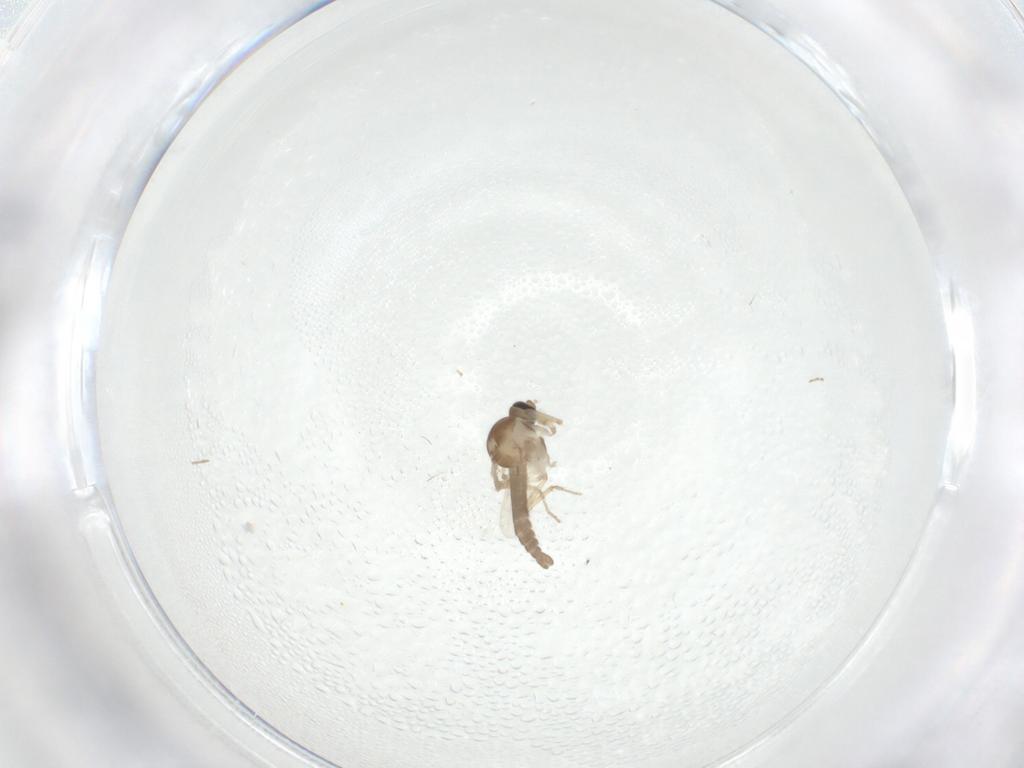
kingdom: Animalia
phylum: Arthropoda
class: Insecta
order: Diptera
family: Ceratopogonidae
